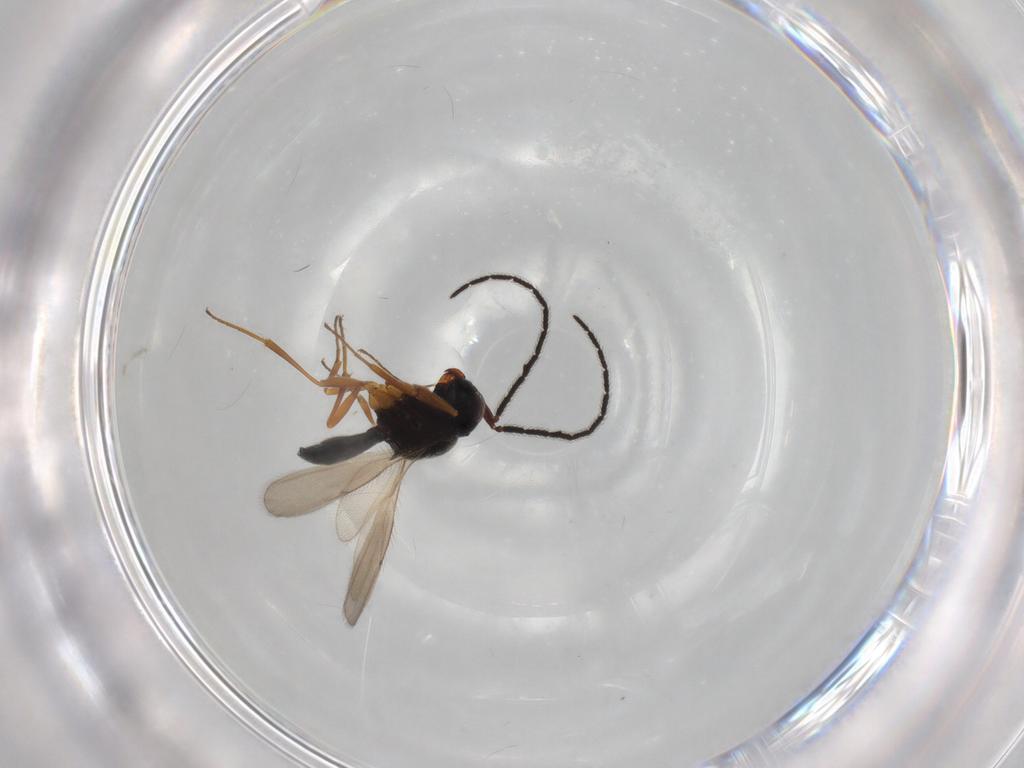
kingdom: Animalia
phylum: Arthropoda
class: Insecta
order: Hymenoptera
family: Scelionidae
